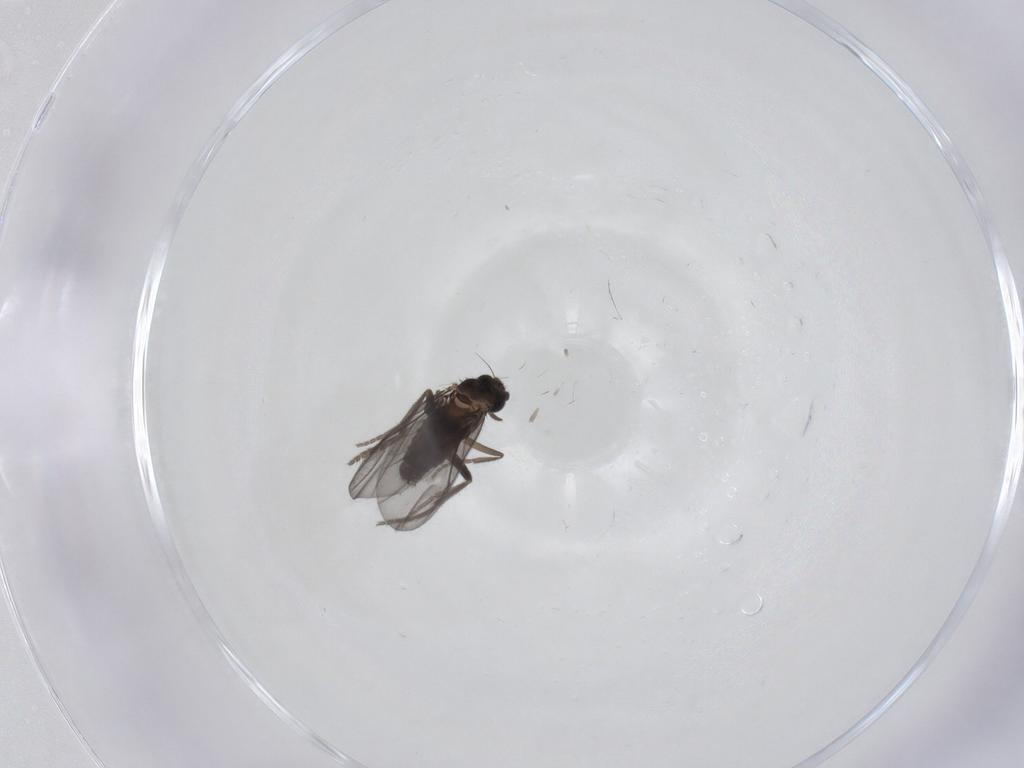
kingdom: Animalia
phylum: Arthropoda
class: Insecta
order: Diptera
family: Phoridae
